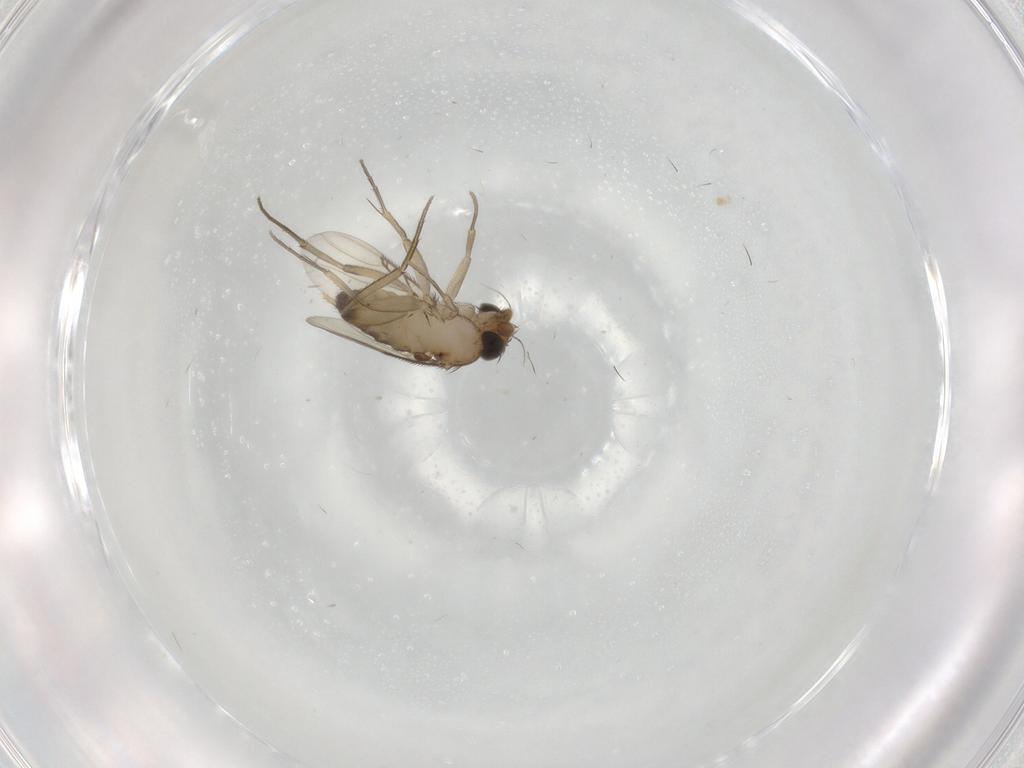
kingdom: Animalia
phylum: Arthropoda
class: Insecta
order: Diptera
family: Phoridae
